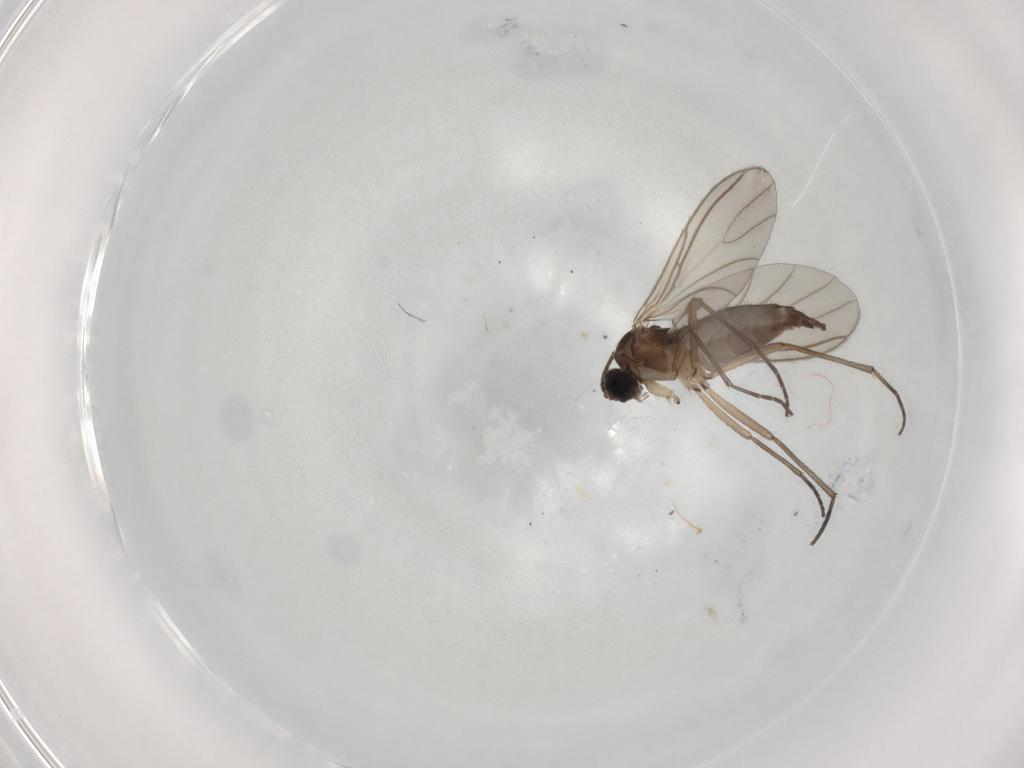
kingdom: Animalia
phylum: Arthropoda
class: Insecta
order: Diptera
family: Sciaridae
